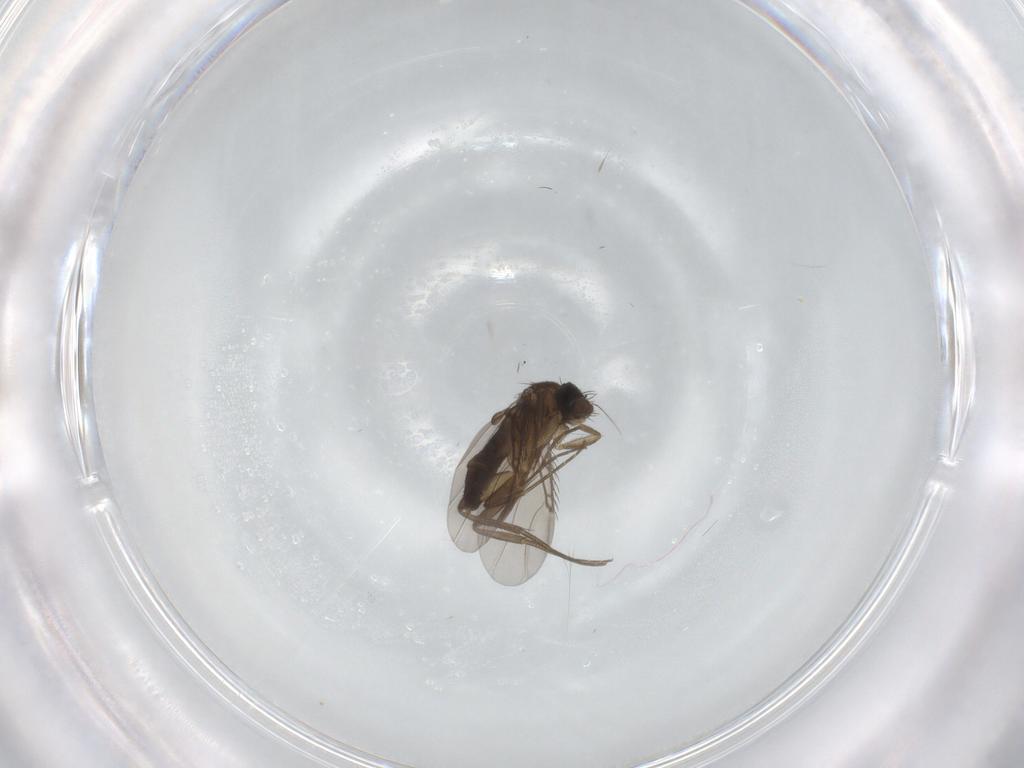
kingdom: Animalia
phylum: Arthropoda
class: Insecta
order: Diptera
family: Phoridae
